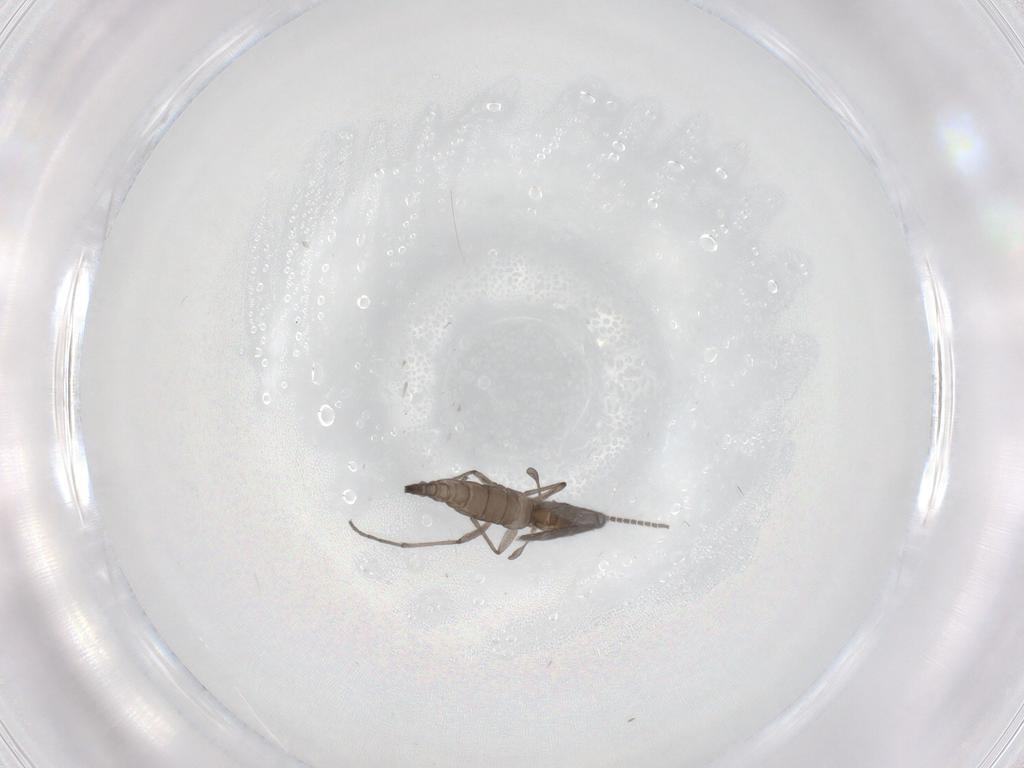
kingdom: Animalia
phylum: Arthropoda
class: Insecta
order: Diptera
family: Sciaridae
